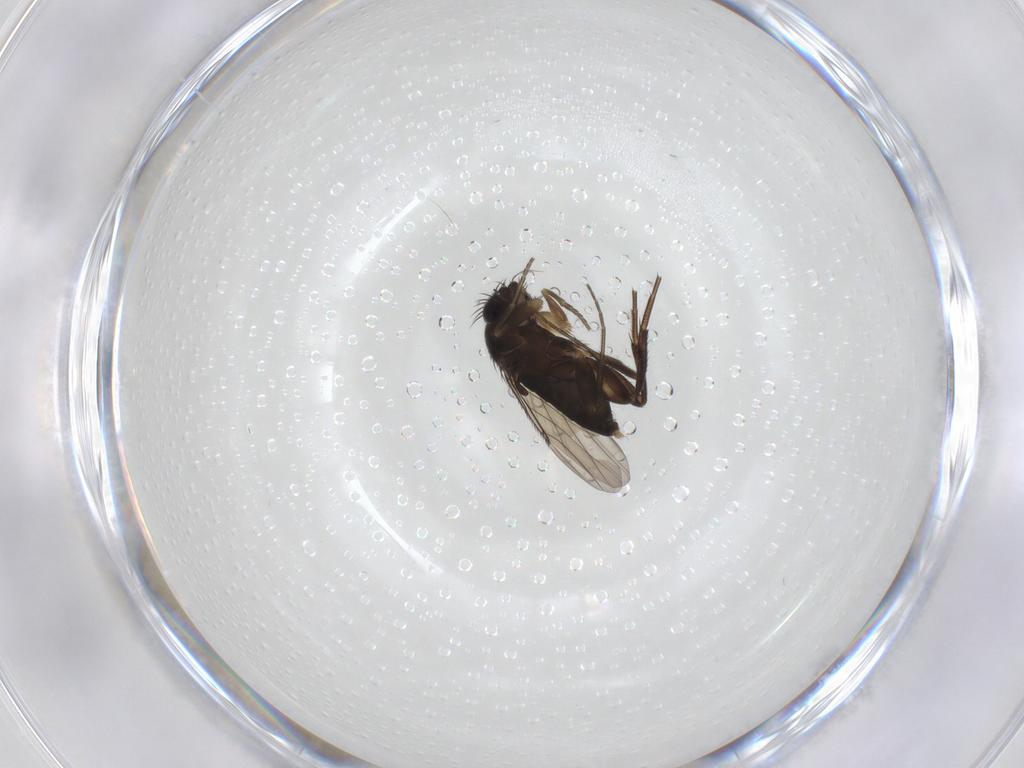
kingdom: Animalia
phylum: Arthropoda
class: Insecta
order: Diptera
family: Phoridae
